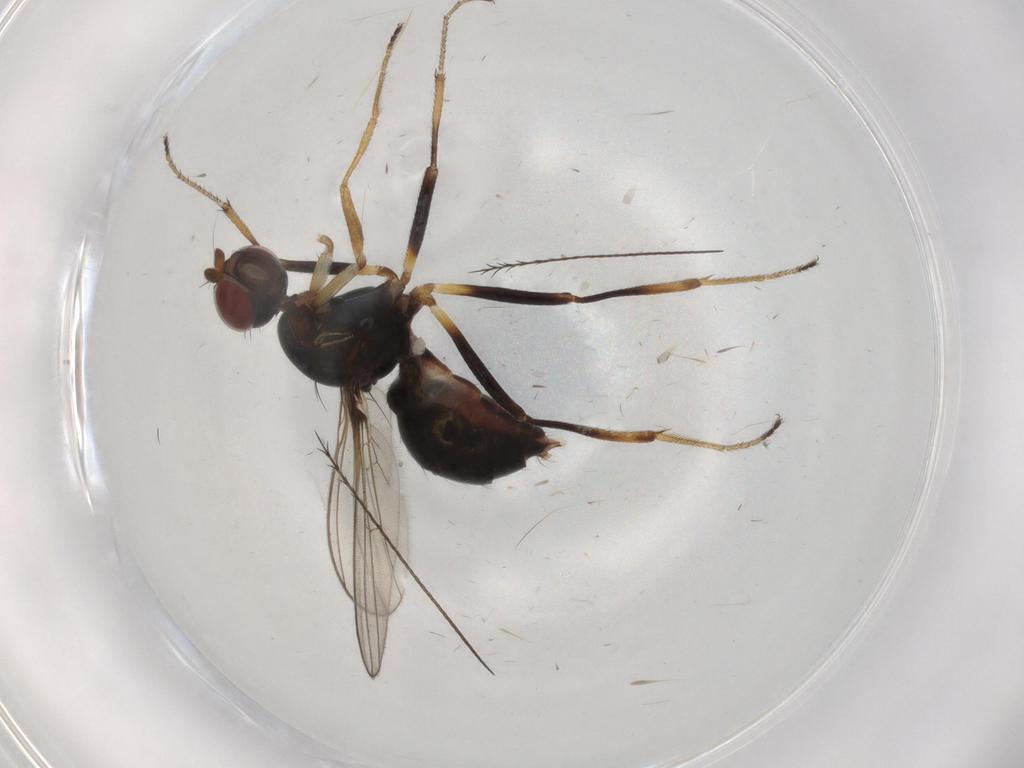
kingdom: Animalia
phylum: Arthropoda
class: Insecta
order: Diptera
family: Sepsidae
